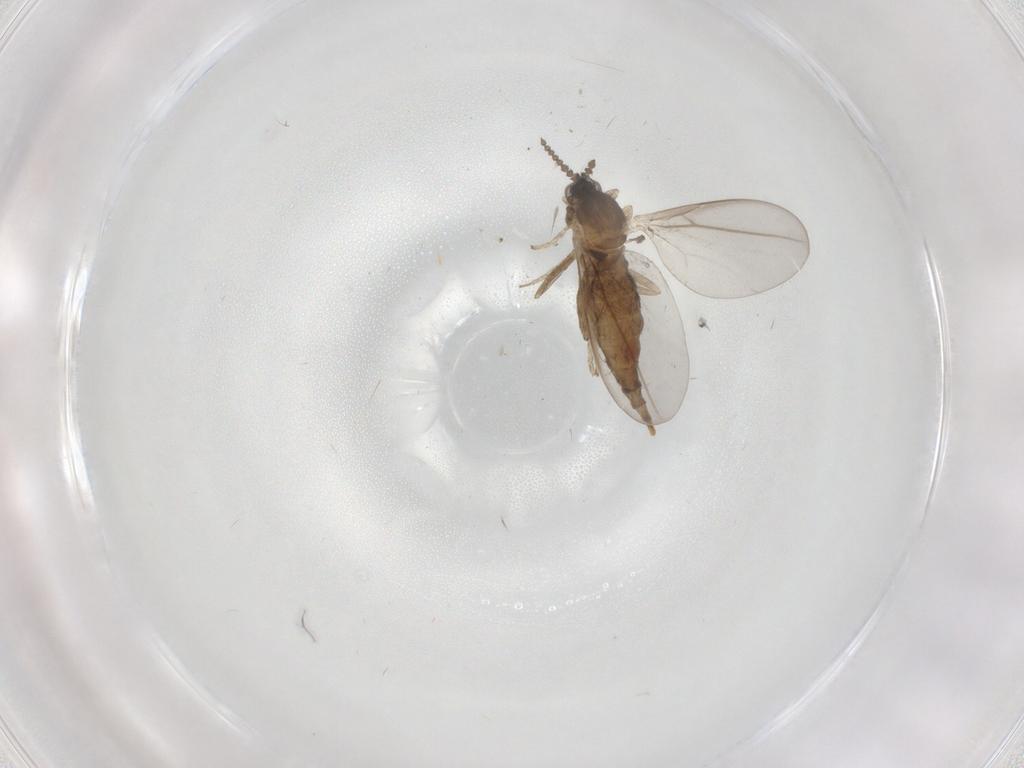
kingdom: Animalia
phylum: Arthropoda
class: Insecta
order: Diptera
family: Cecidomyiidae
